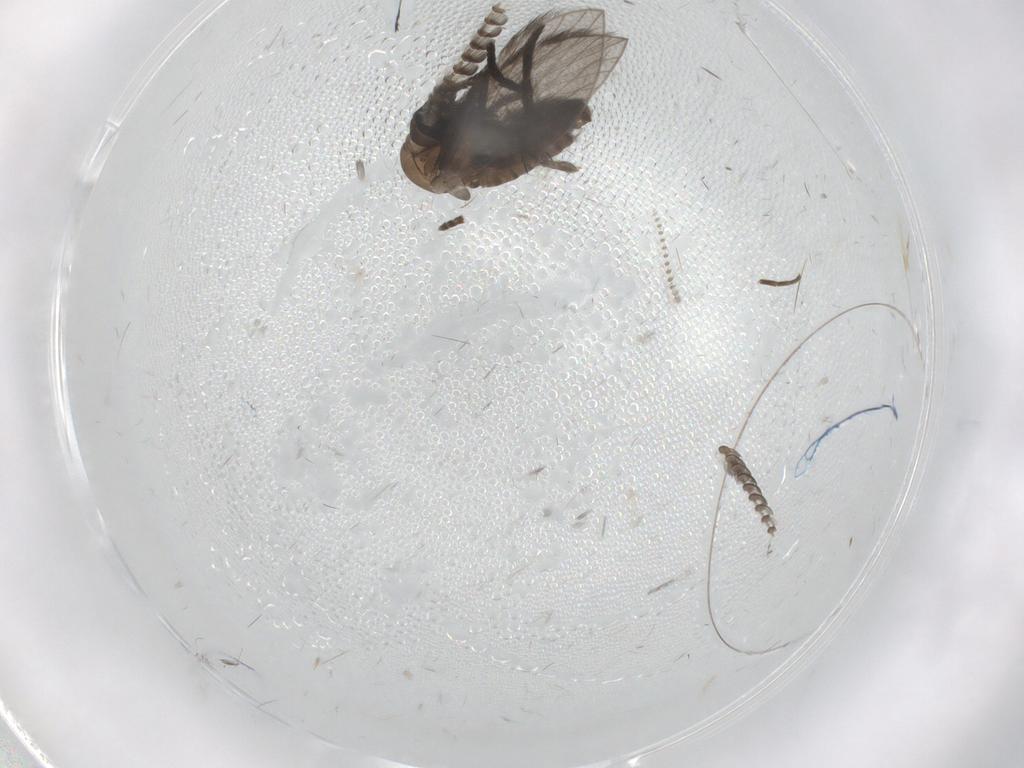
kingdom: Animalia
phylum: Arthropoda
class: Insecta
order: Diptera
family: Psychodidae
